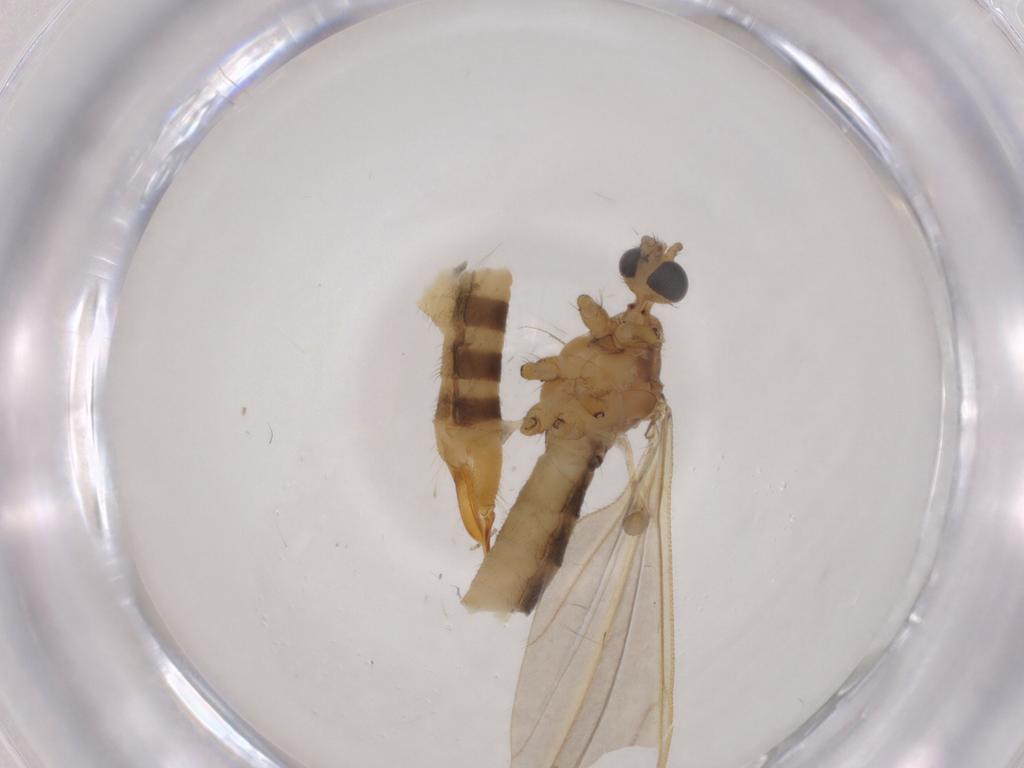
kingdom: Animalia
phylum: Arthropoda
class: Insecta
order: Diptera
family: Limoniidae
